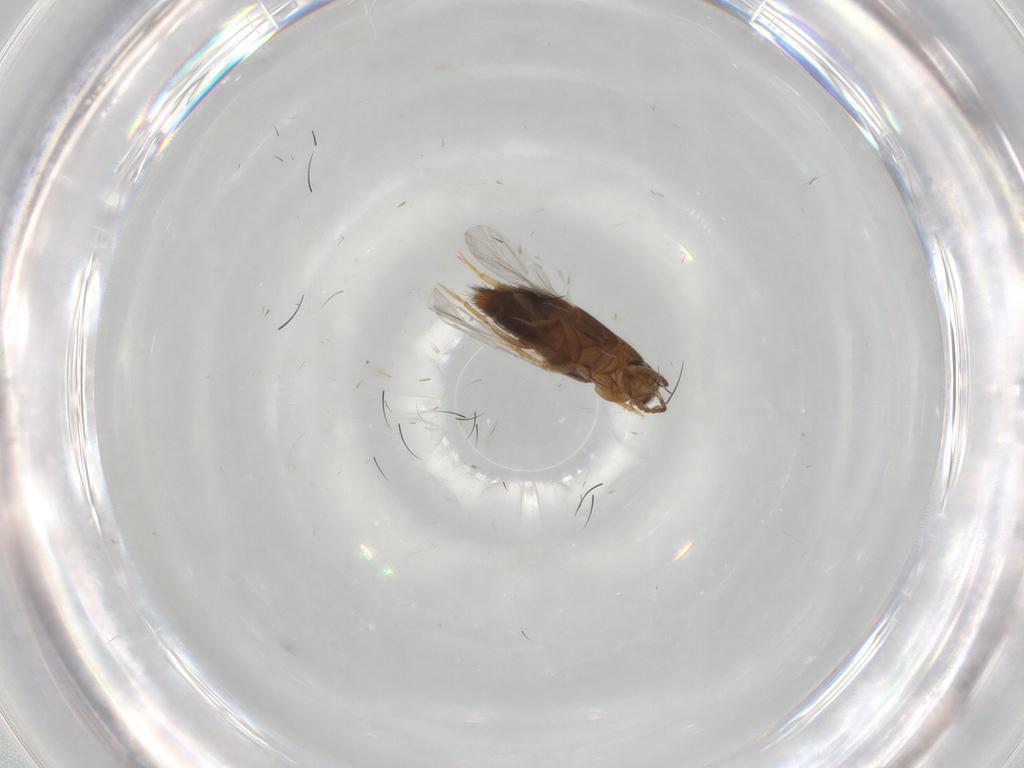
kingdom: Animalia
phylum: Arthropoda
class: Insecta
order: Coleoptera
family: Staphylinidae
